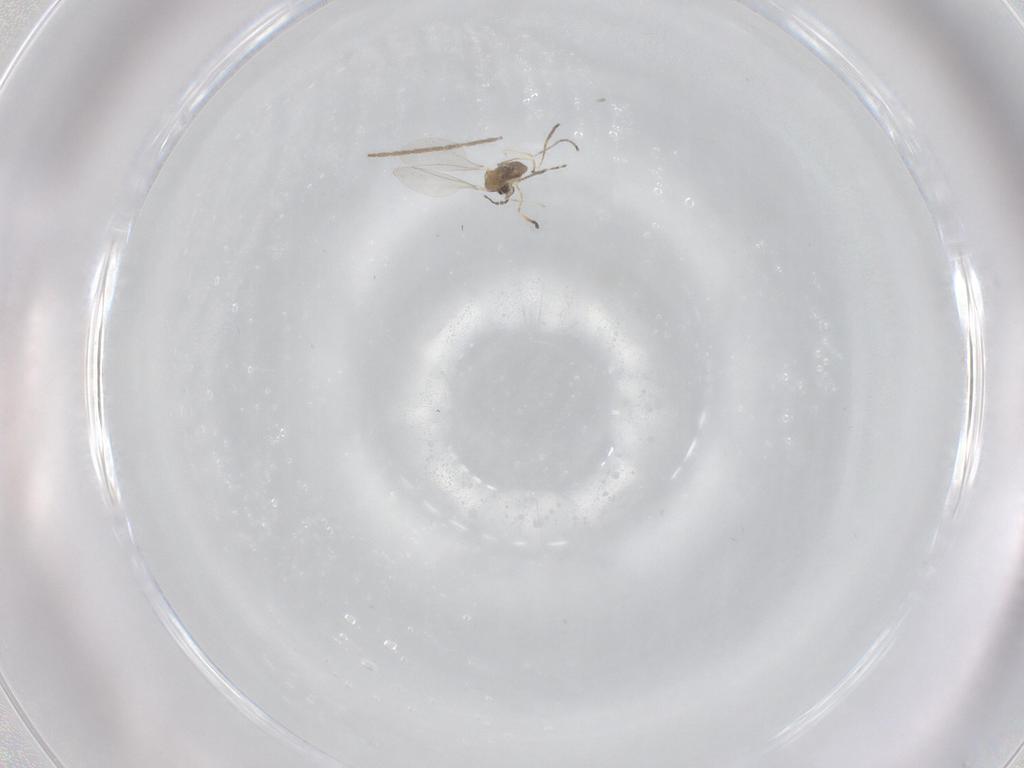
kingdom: Animalia
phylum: Arthropoda
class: Insecta
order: Diptera
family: Cecidomyiidae
